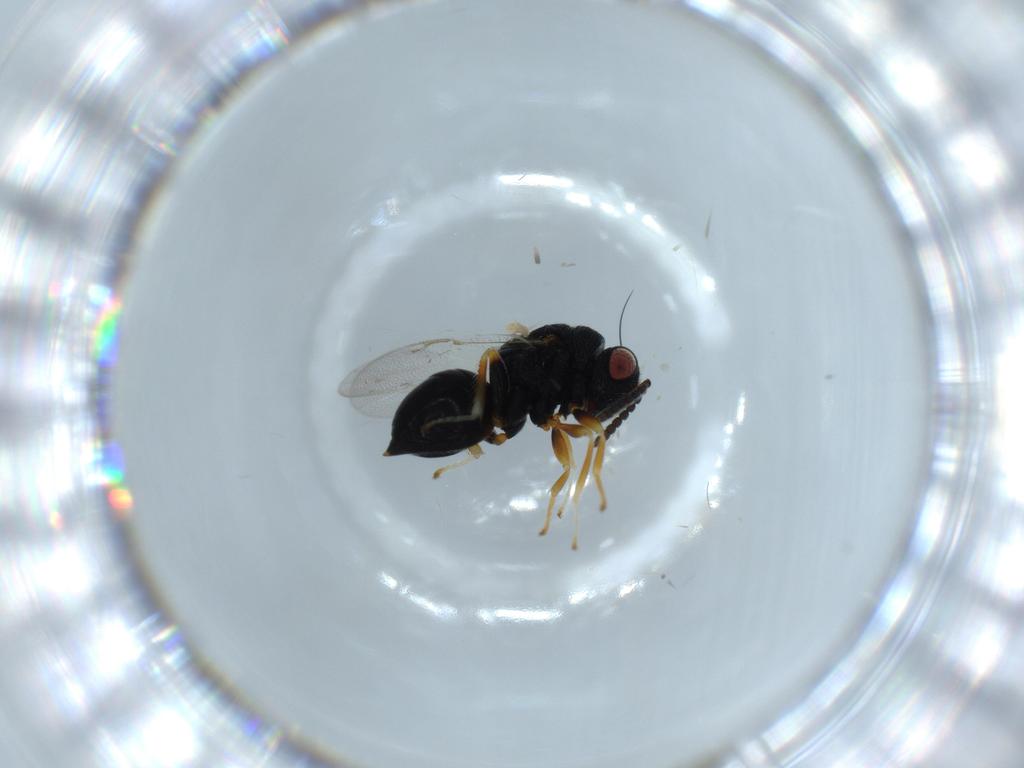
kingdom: Animalia
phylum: Arthropoda
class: Insecta
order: Hymenoptera
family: Eurytomidae
